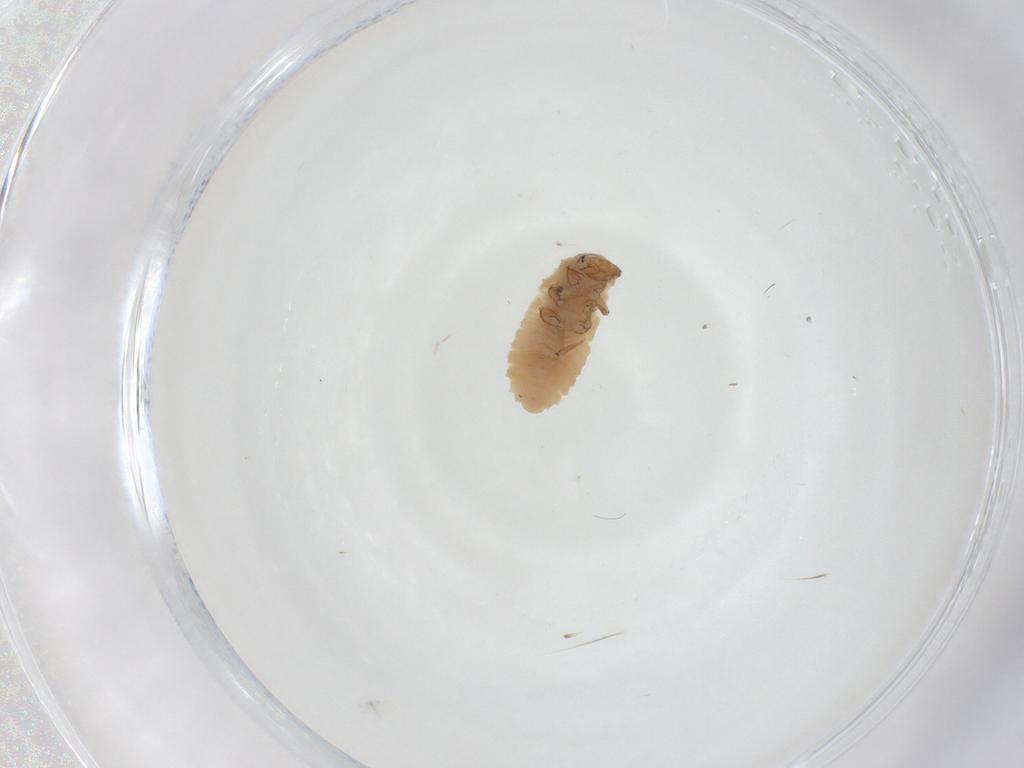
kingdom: Animalia
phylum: Arthropoda
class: Insecta
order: Coleoptera
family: Coccinellidae
